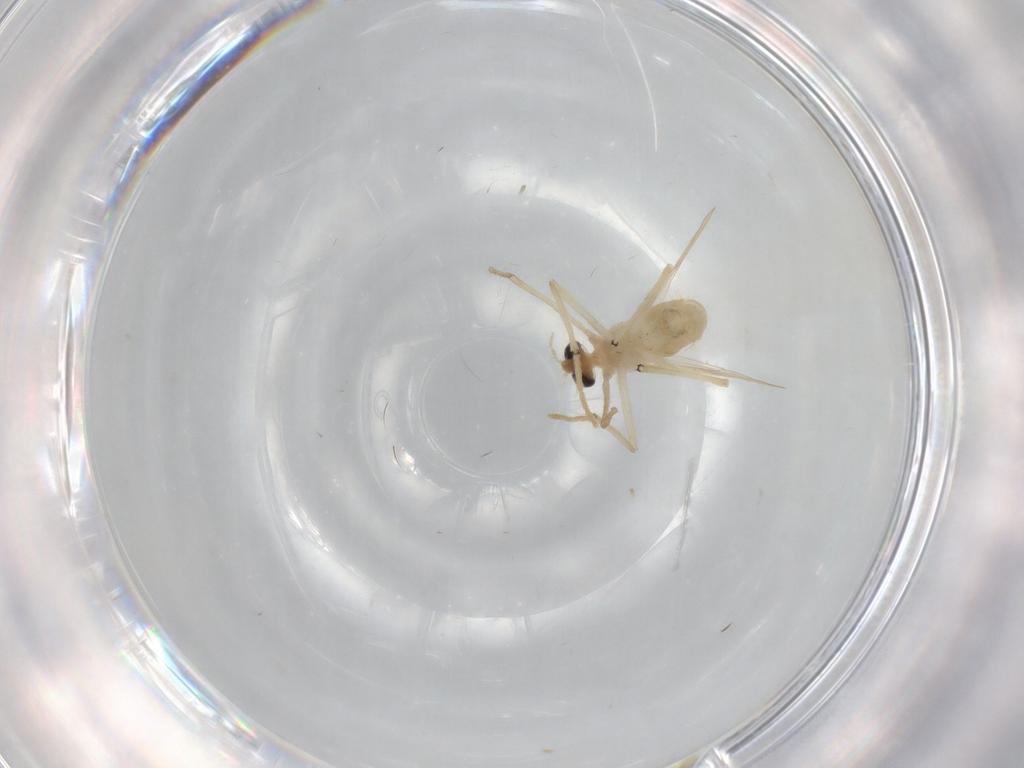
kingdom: Animalia
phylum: Arthropoda
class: Insecta
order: Diptera
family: Chironomidae
